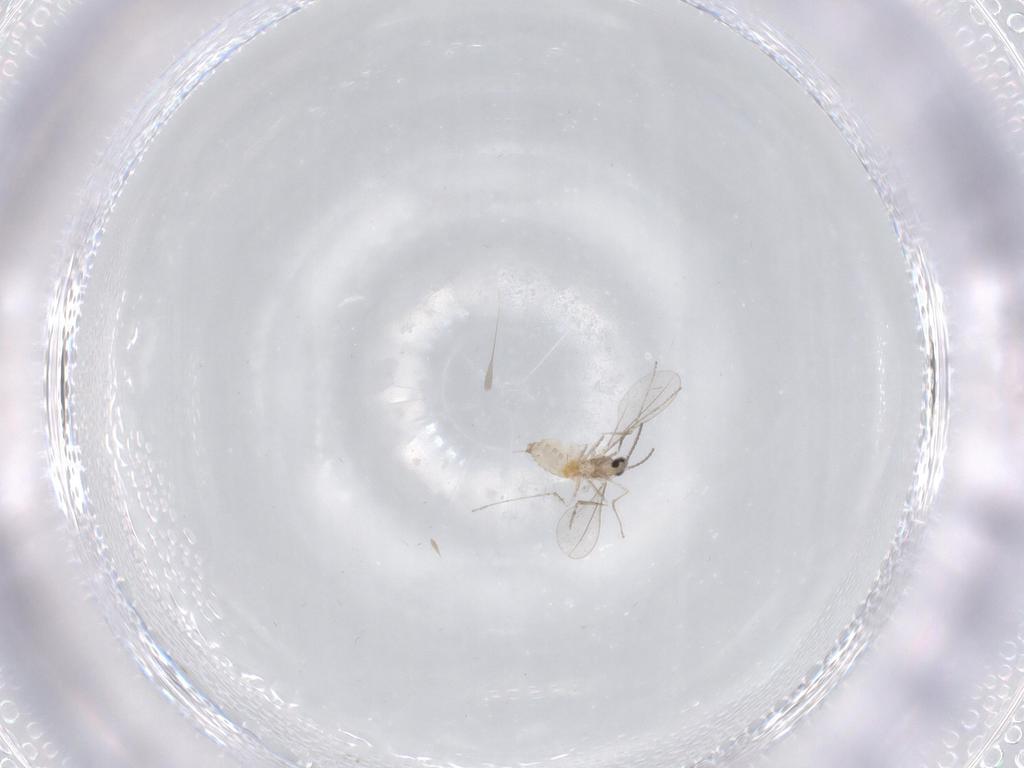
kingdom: Animalia
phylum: Arthropoda
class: Insecta
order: Diptera
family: Cecidomyiidae
